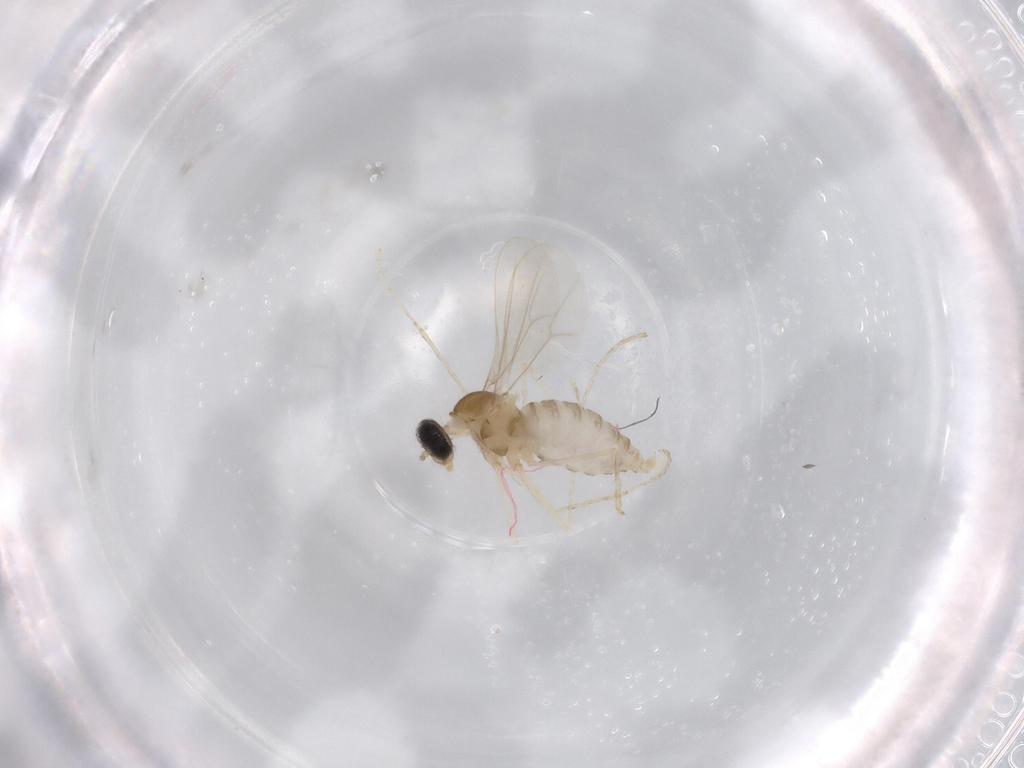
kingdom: Animalia
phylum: Arthropoda
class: Insecta
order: Diptera
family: Cecidomyiidae
